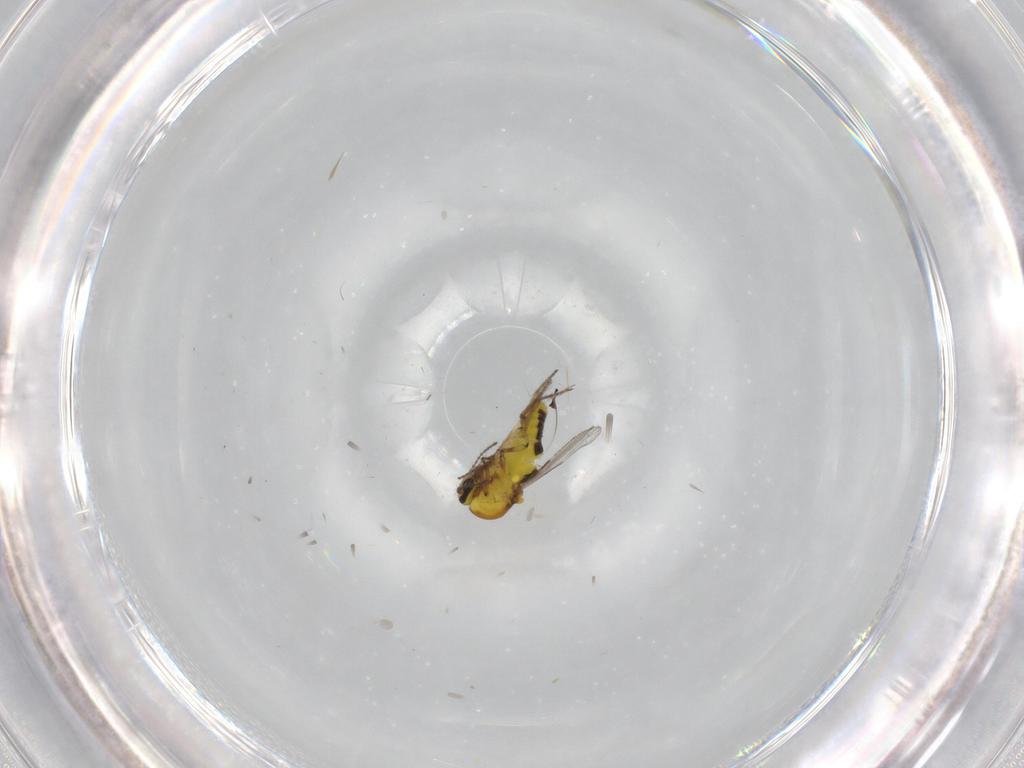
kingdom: Animalia
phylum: Arthropoda
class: Insecta
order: Diptera
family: Ceratopogonidae
